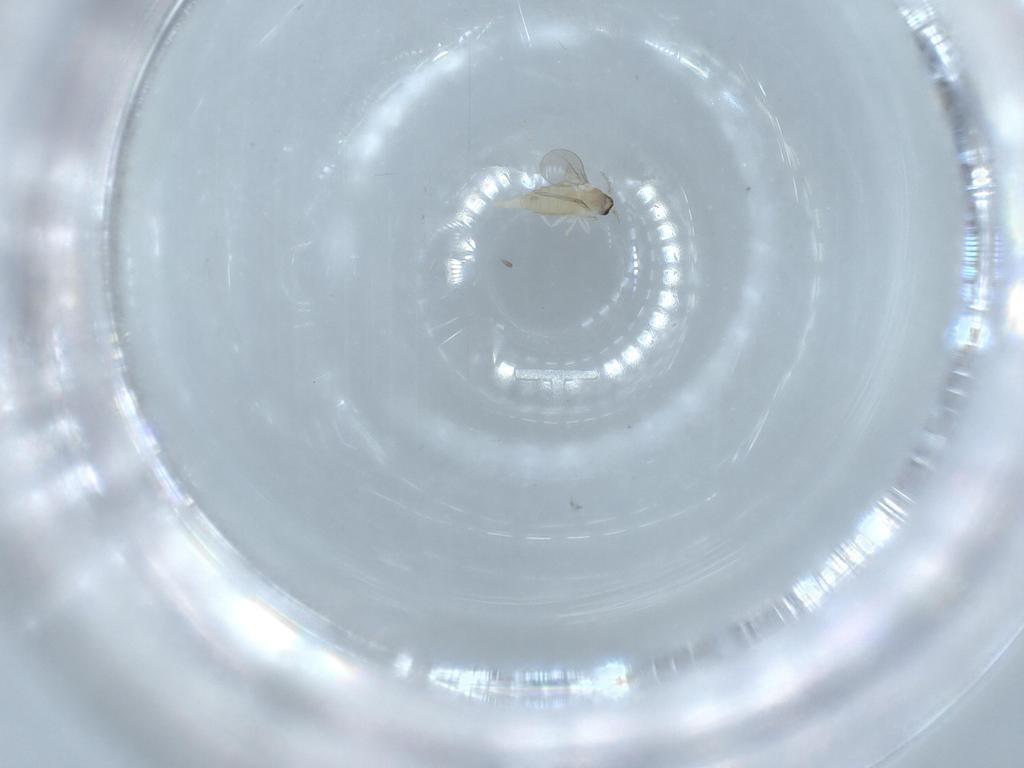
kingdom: Animalia
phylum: Arthropoda
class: Insecta
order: Diptera
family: Cecidomyiidae
